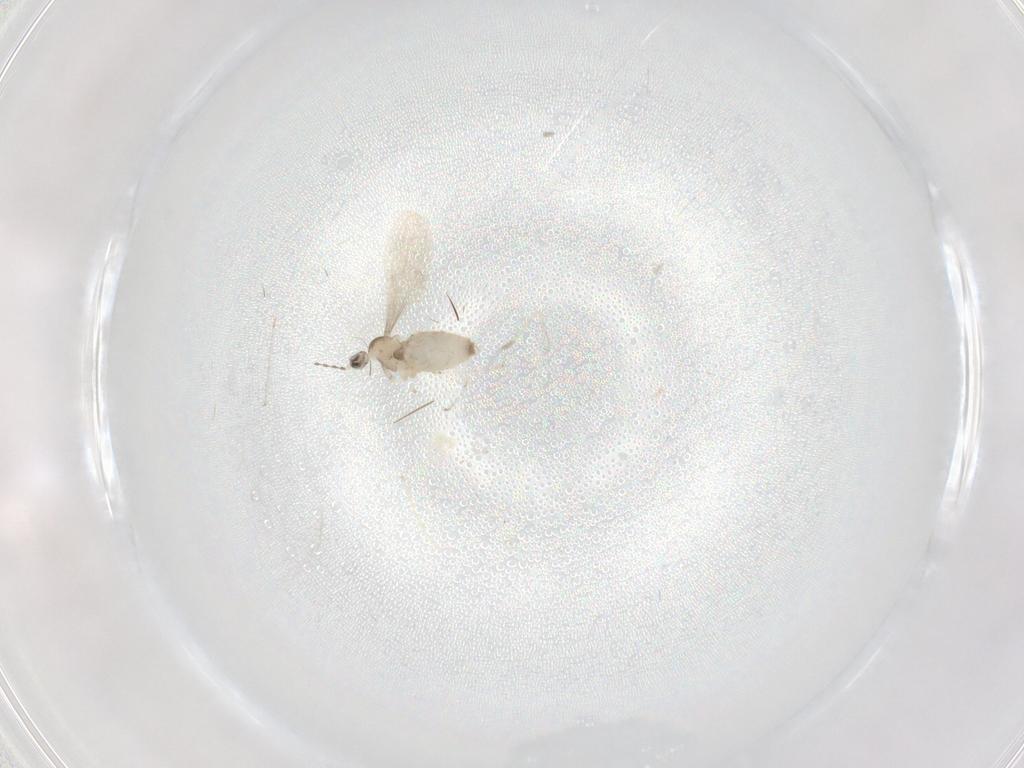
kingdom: Animalia
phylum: Arthropoda
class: Insecta
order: Diptera
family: Cecidomyiidae
